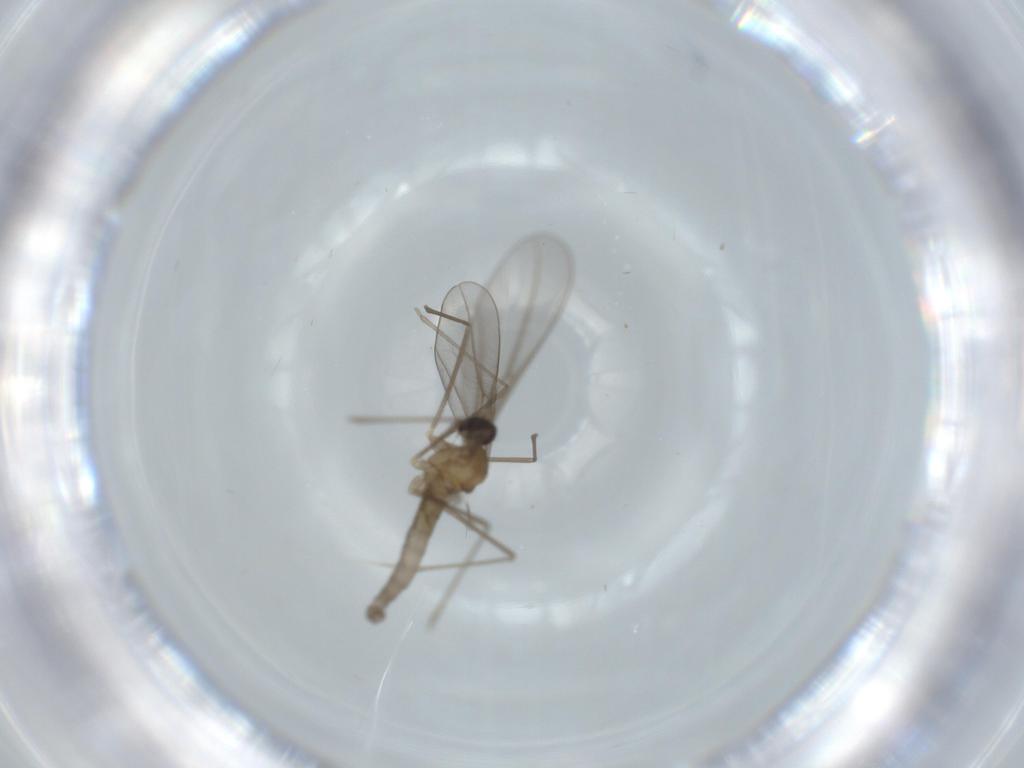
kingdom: Animalia
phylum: Arthropoda
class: Insecta
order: Diptera
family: Cecidomyiidae
